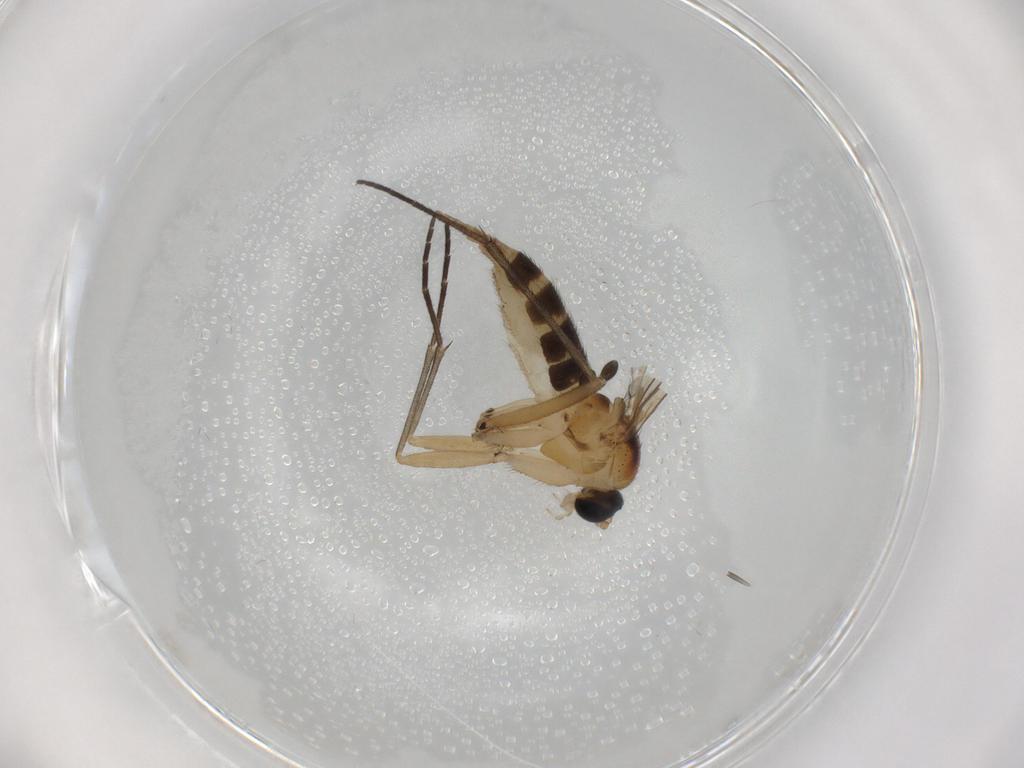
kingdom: Animalia
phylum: Arthropoda
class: Insecta
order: Diptera
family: Sciaridae
